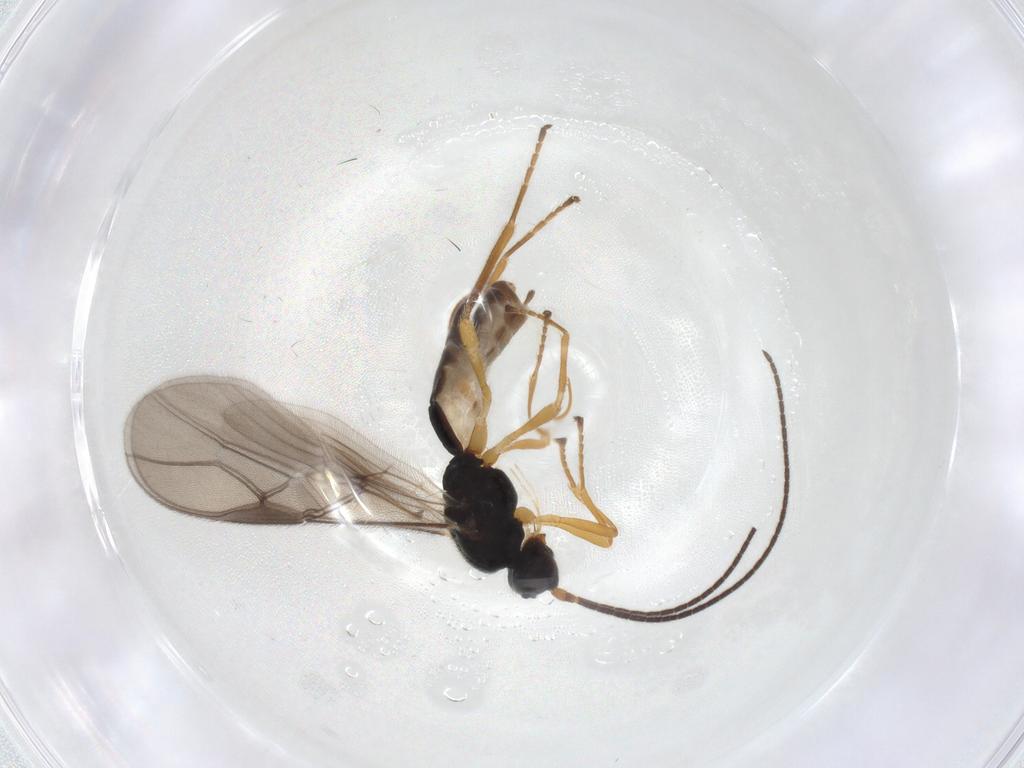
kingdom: Animalia
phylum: Arthropoda
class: Insecta
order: Hymenoptera
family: Braconidae
